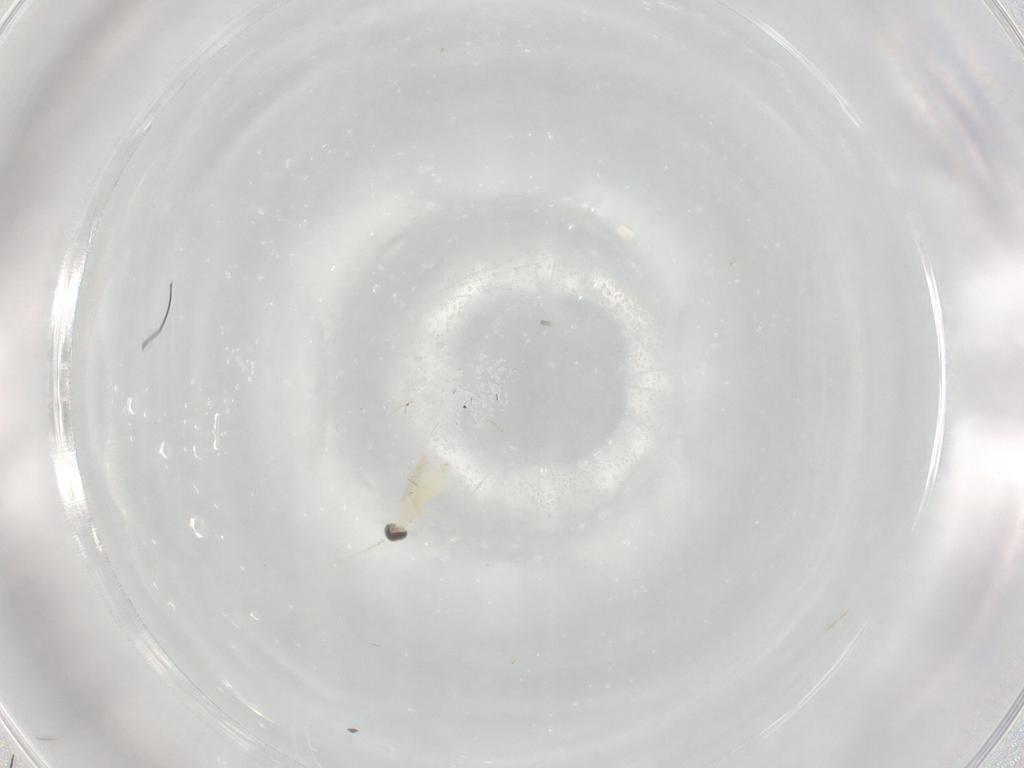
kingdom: Animalia
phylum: Arthropoda
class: Insecta
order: Diptera
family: Cecidomyiidae
